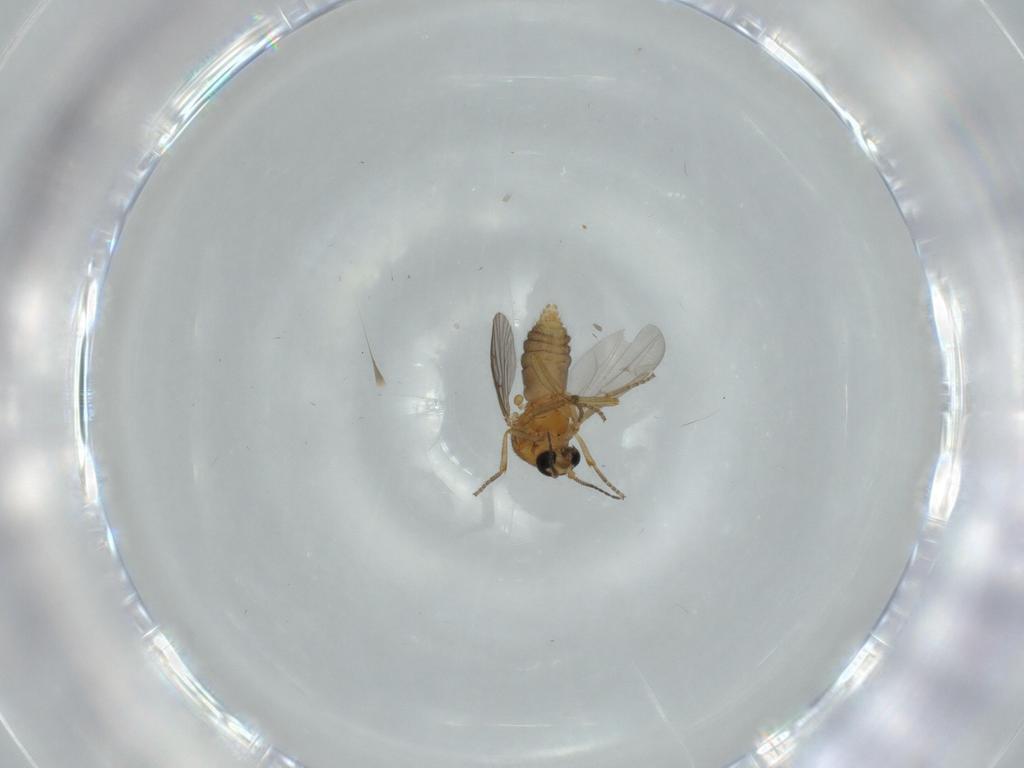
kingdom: Animalia
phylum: Arthropoda
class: Insecta
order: Diptera
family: Ceratopogonidae
